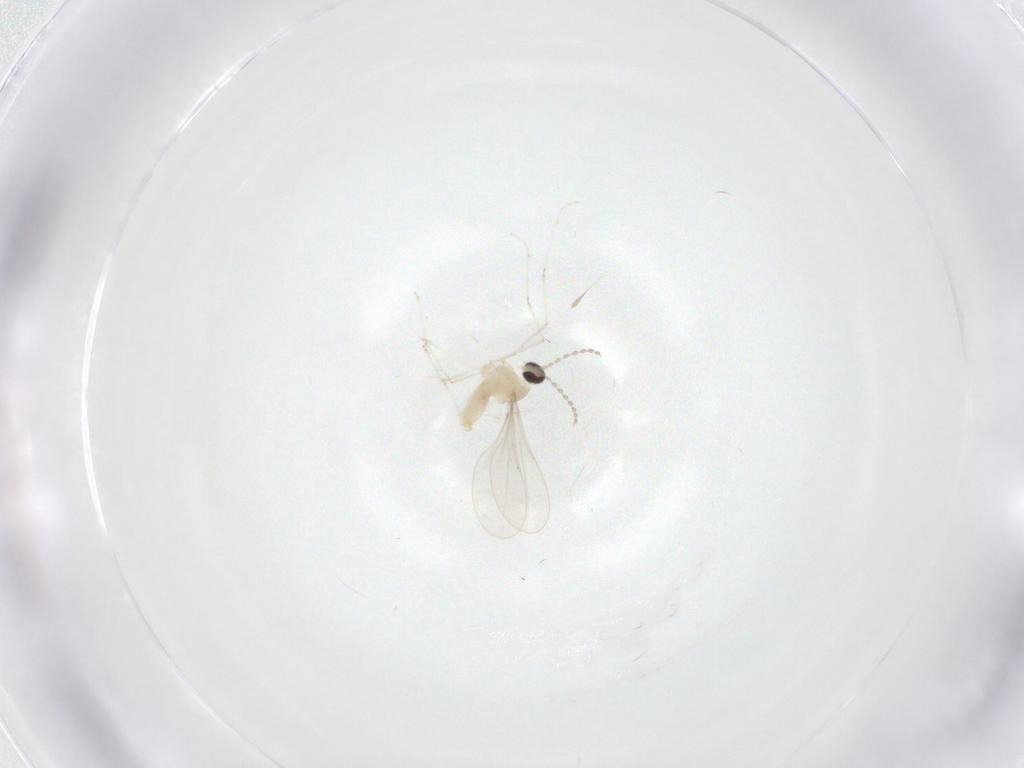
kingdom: Animalia
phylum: Arthropoda
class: Insecta
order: Diptera
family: Cecidomyiidae
